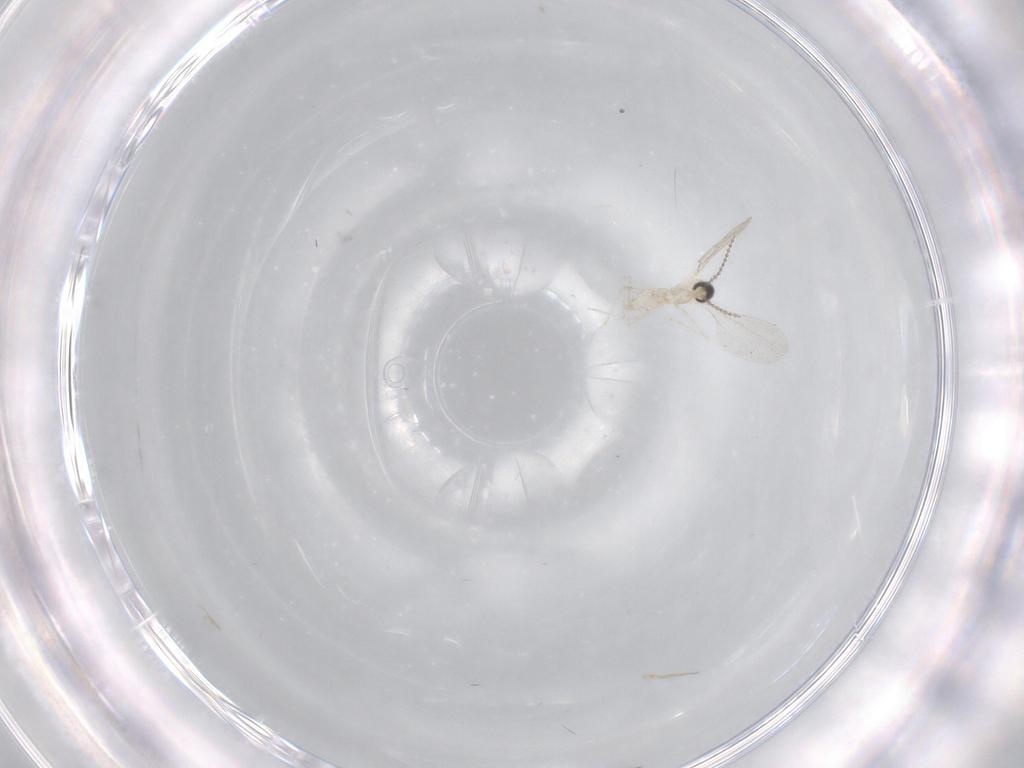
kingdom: Animalia
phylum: Arthropoda
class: Insecta
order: Diptera
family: Cecidomyiidae
